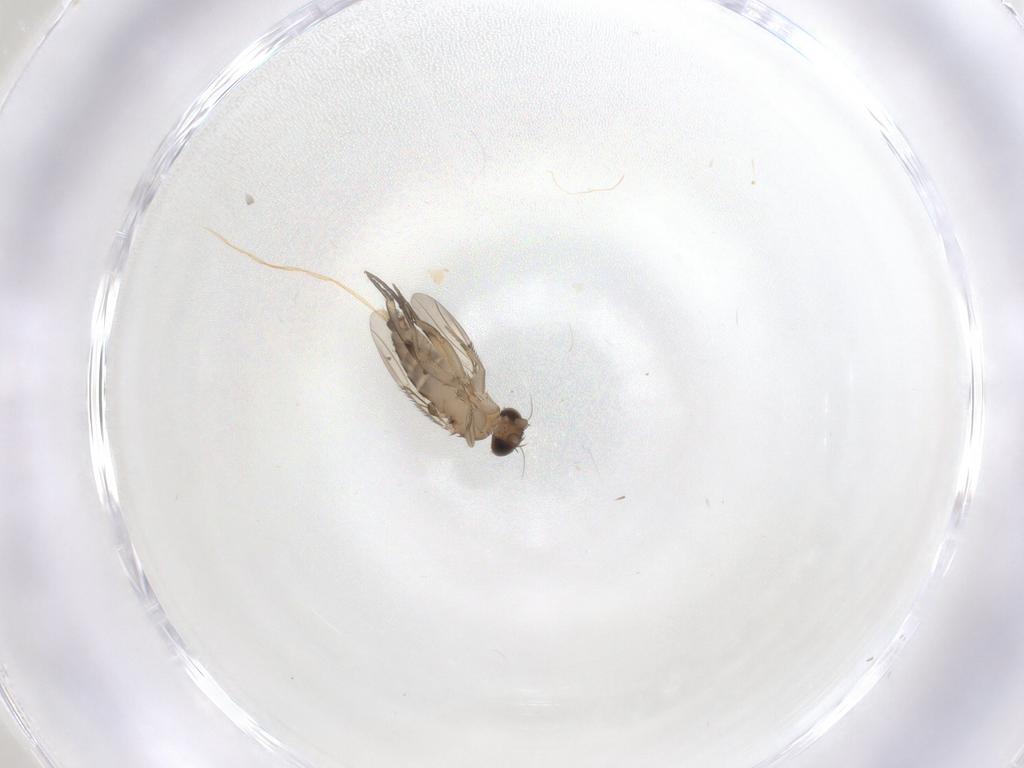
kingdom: Animalia
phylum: Arthropoda
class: Insecta
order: Diptera
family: Phoridae
